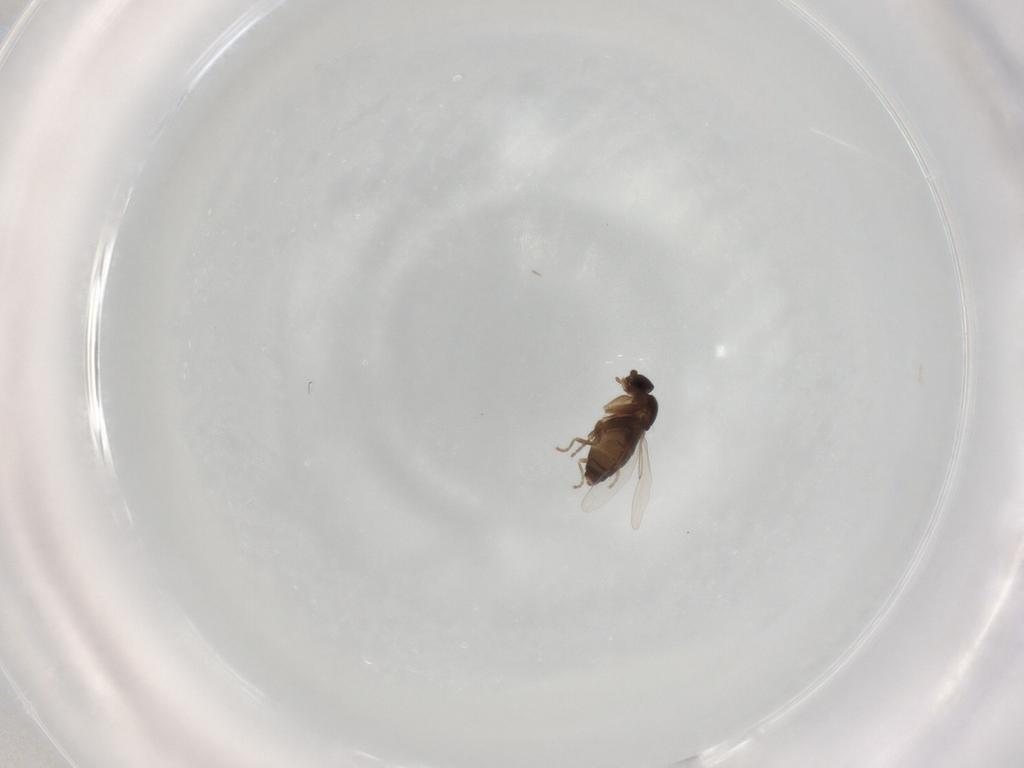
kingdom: Animalia
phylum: Arthropoda
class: Insecta
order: Diptera
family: Phoridae
